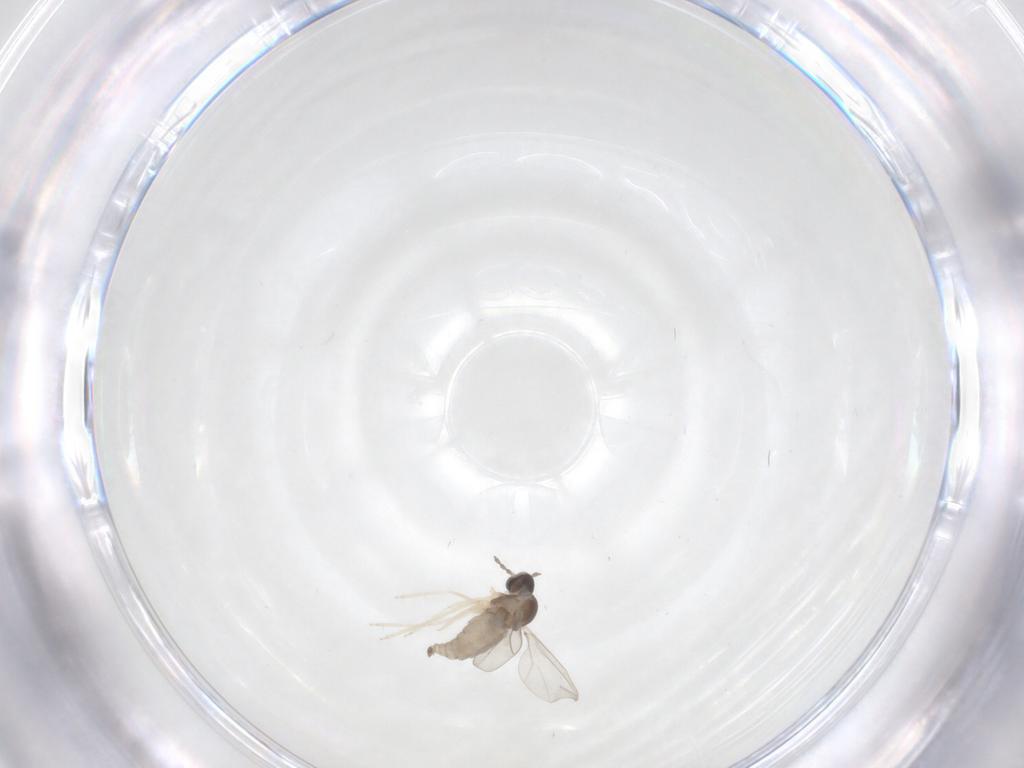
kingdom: Animalia
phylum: Arthropoda
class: Insecta
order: Diptera
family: Cecidomyiidae
